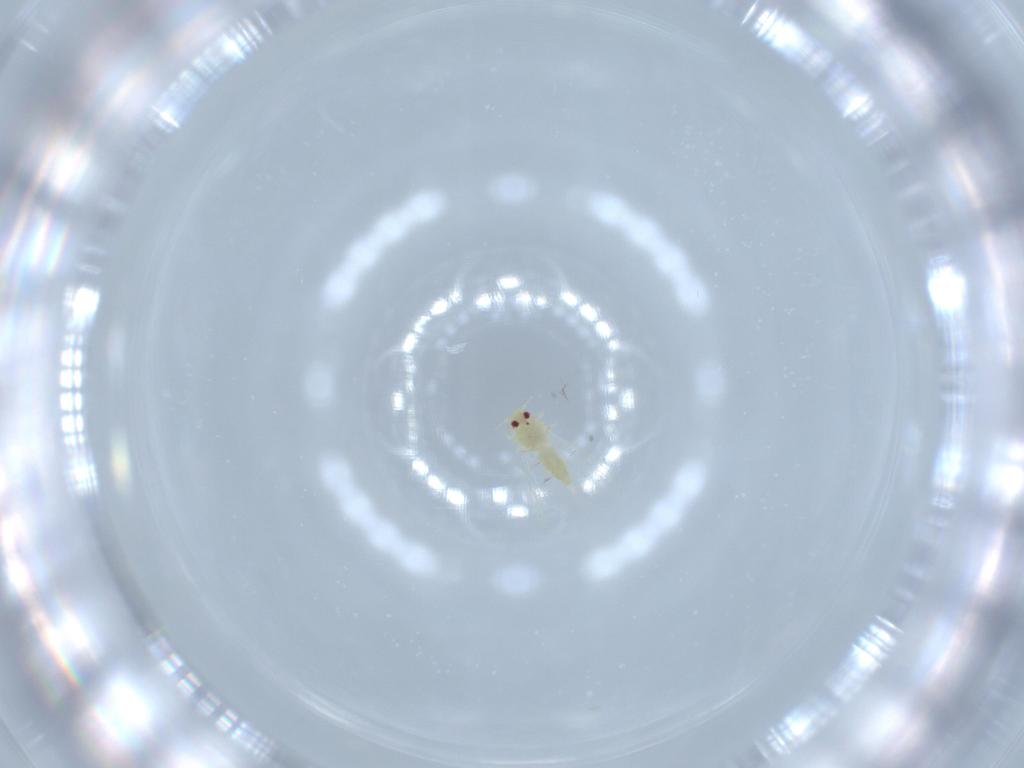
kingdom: Animalia
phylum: Arthropoda
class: Insecta
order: Hemiptera
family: Aleyrodidae
